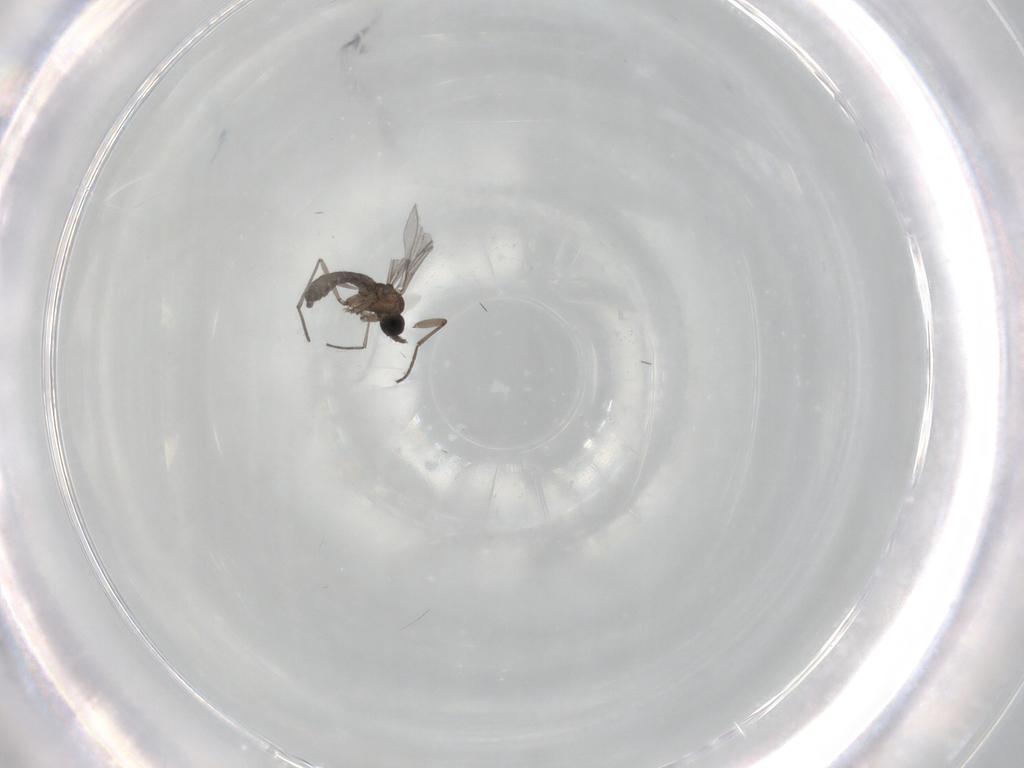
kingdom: Animalia
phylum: Arthropoda
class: Insecta
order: Diptera
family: Sciaridae
